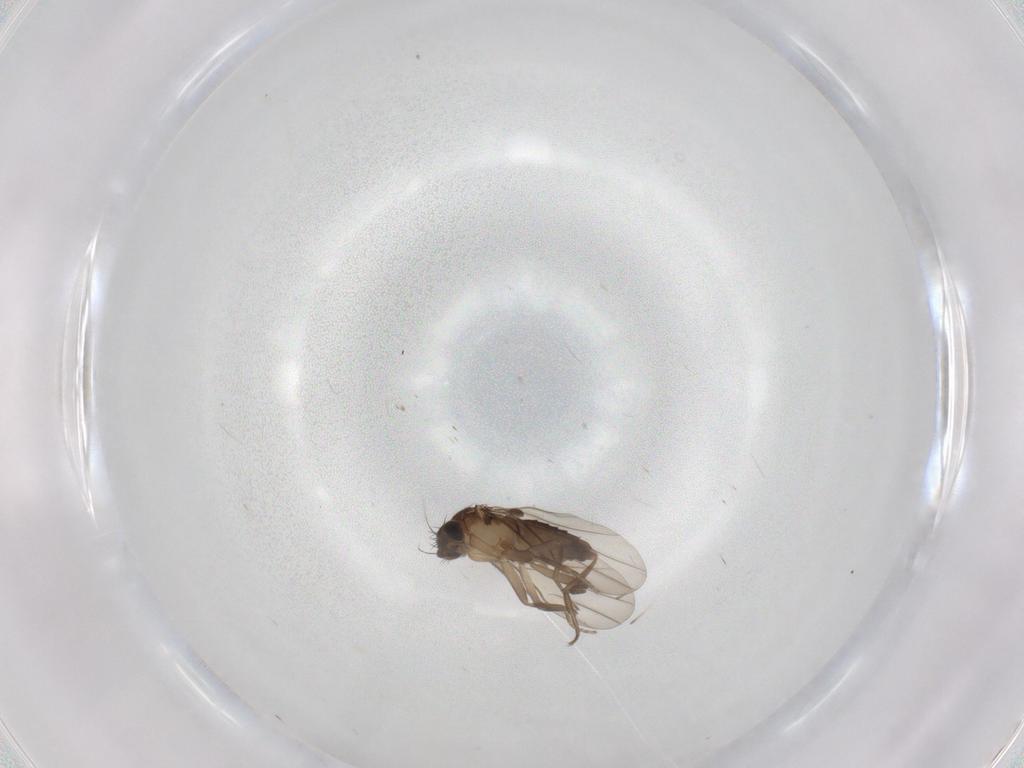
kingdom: Animalia
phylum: Arthropoda
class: Insecta
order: Diptera
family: Phoridae
